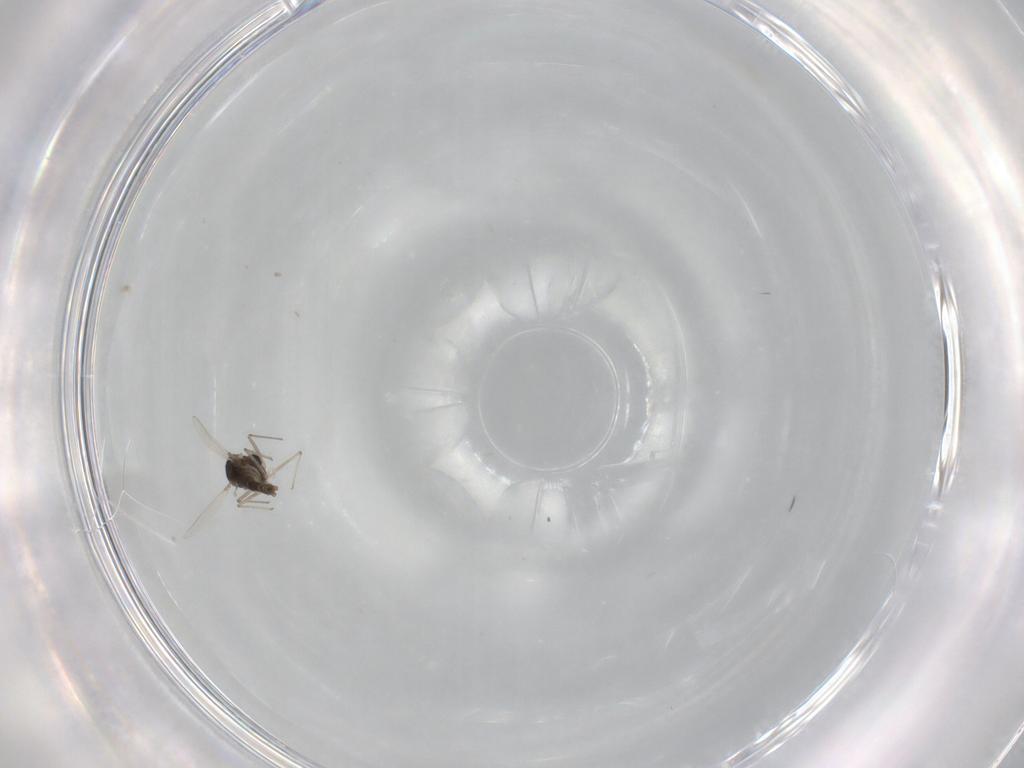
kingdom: Animalia
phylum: Arthropoda
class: Insecta
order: Diptera
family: Chironomidae
